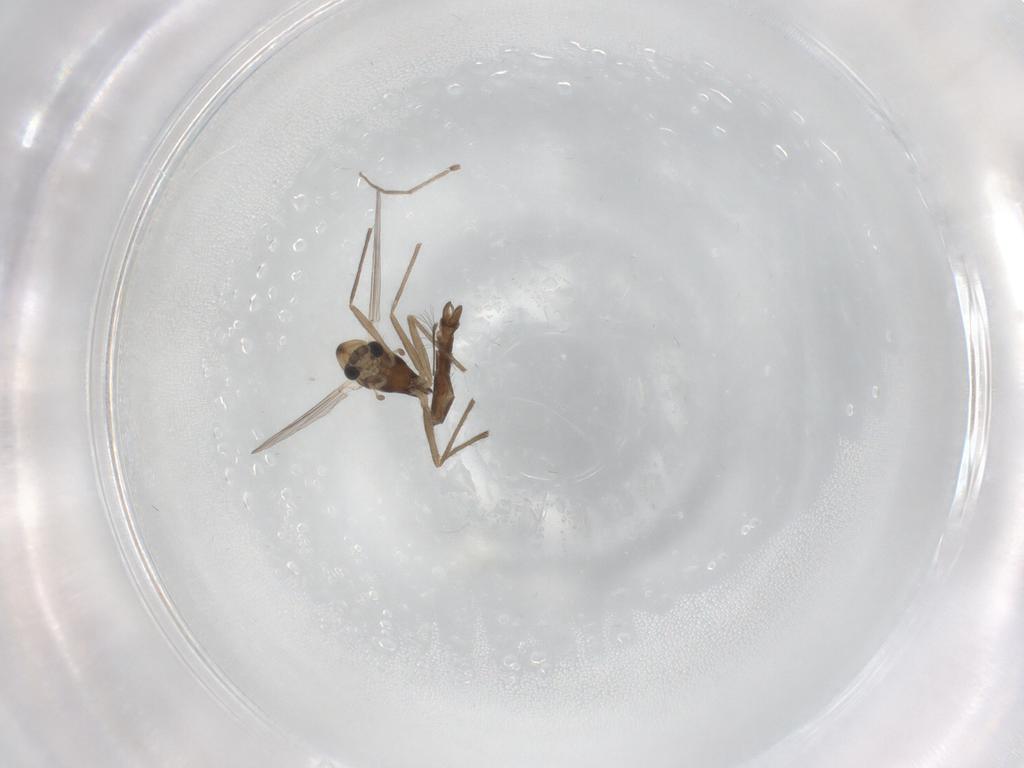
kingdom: Animalia
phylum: Arthropoda
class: Insecta
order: Diptera
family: Chironomidae
